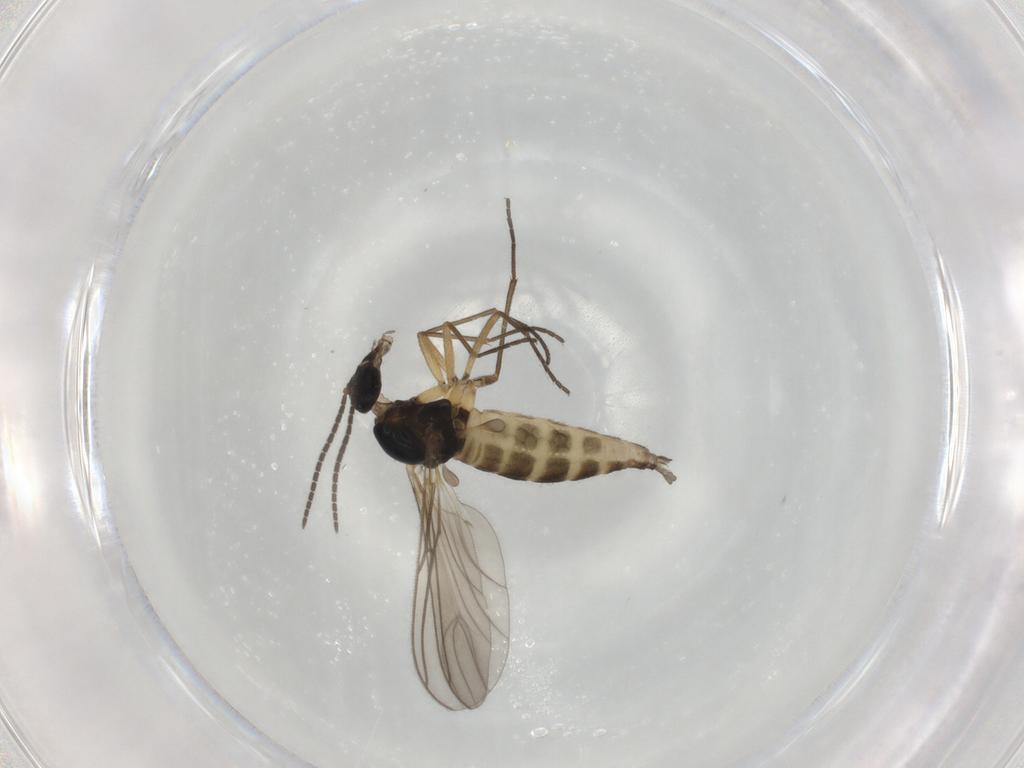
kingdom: Animalia
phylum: Arthropoda
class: Insecta
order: Diptera
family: Sciaridae
